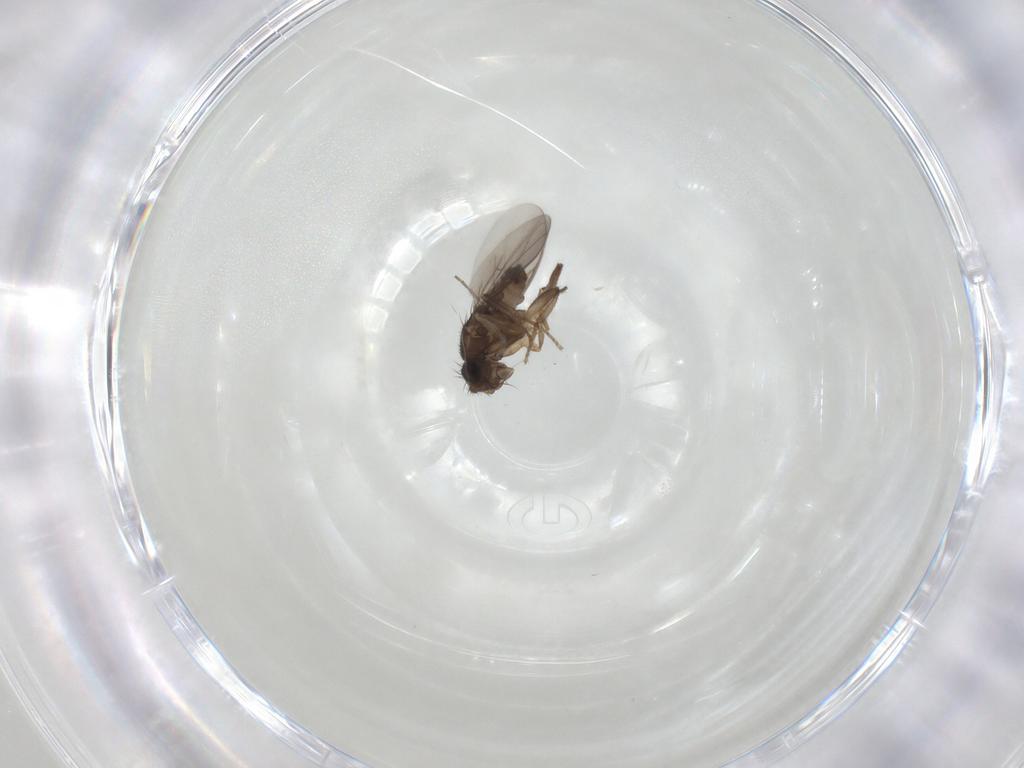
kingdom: Animalia
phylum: Arthropoda
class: Insecta
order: Diptera
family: Sphaeroceridae
